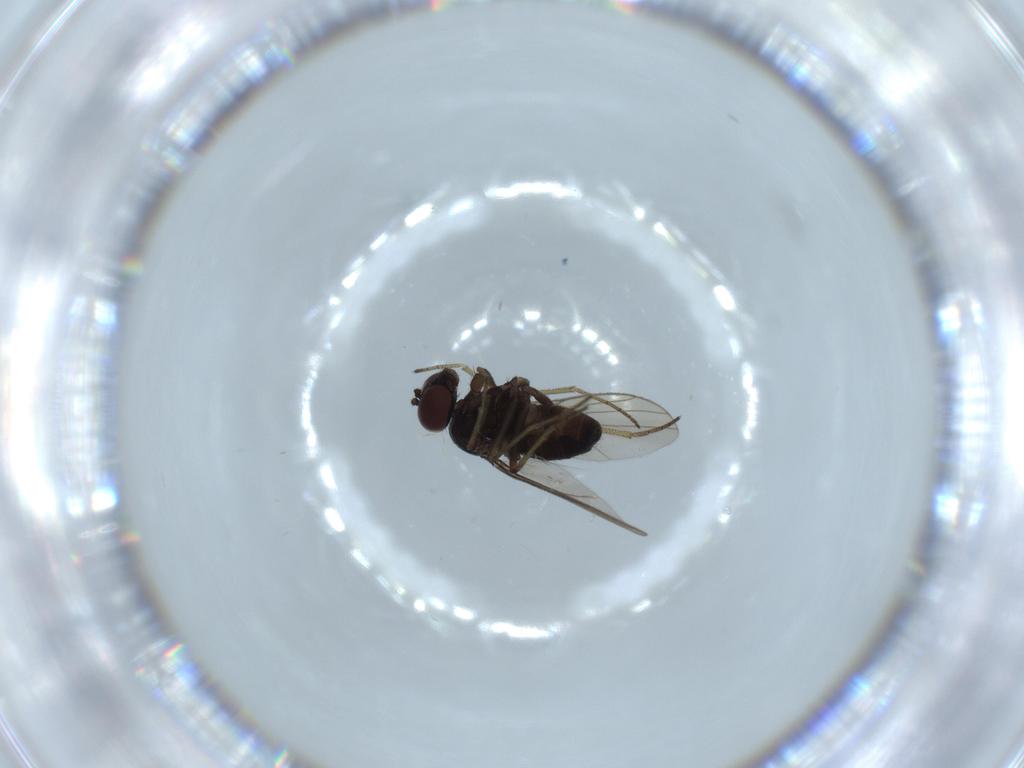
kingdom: Animalia
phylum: Arthropoda
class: Insecta
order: Diptera
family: Dolichopodidae
